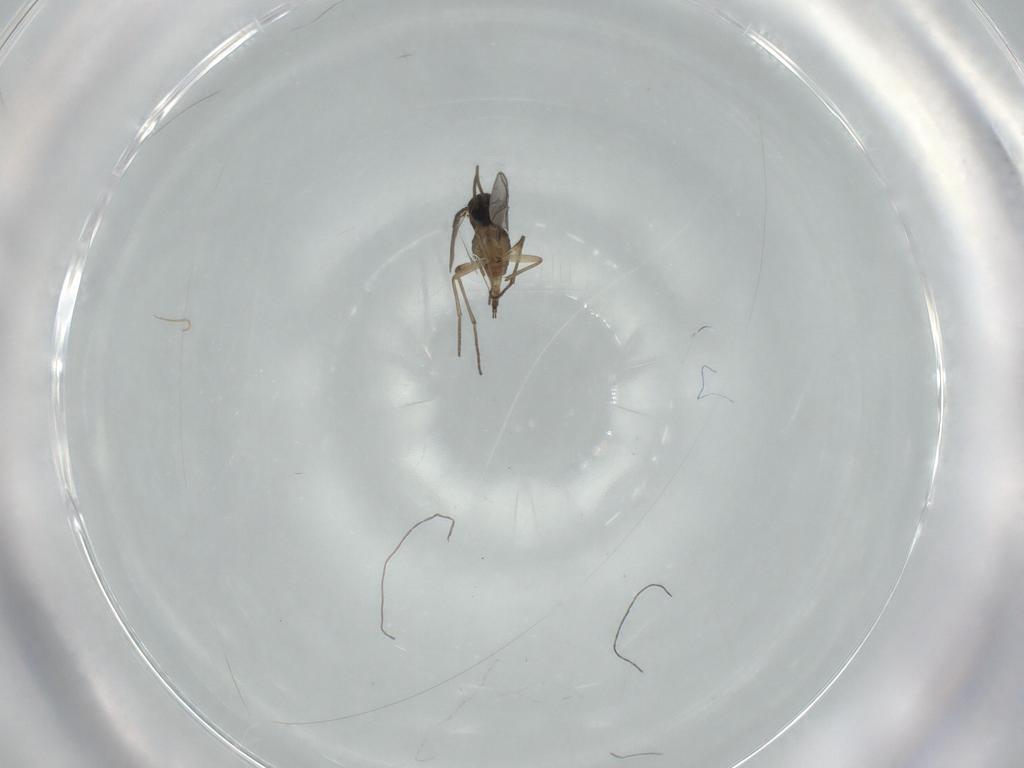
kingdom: Animalia
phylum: Arthropoda
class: Insecta
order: Diptera
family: Sciaridae
